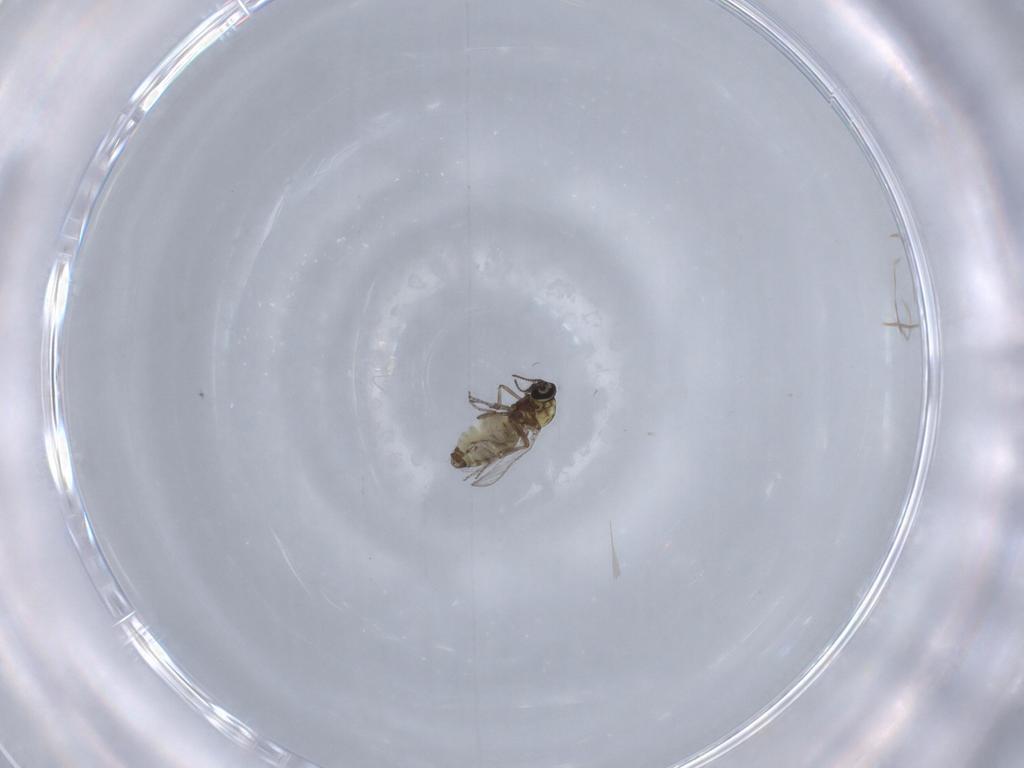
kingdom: Animalia
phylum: Arthropoda
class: Insecta
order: Diptera
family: Ceratopogonidae
